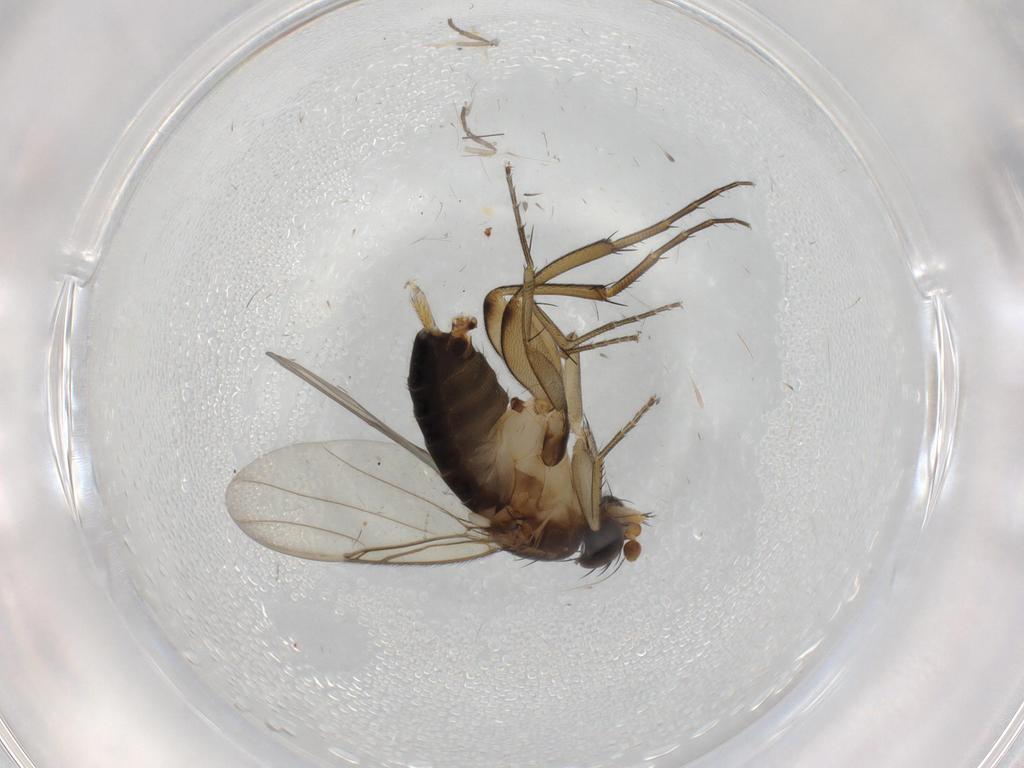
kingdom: Animalia
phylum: Arthropoda
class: Insecta
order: Diptera
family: Phoridae
